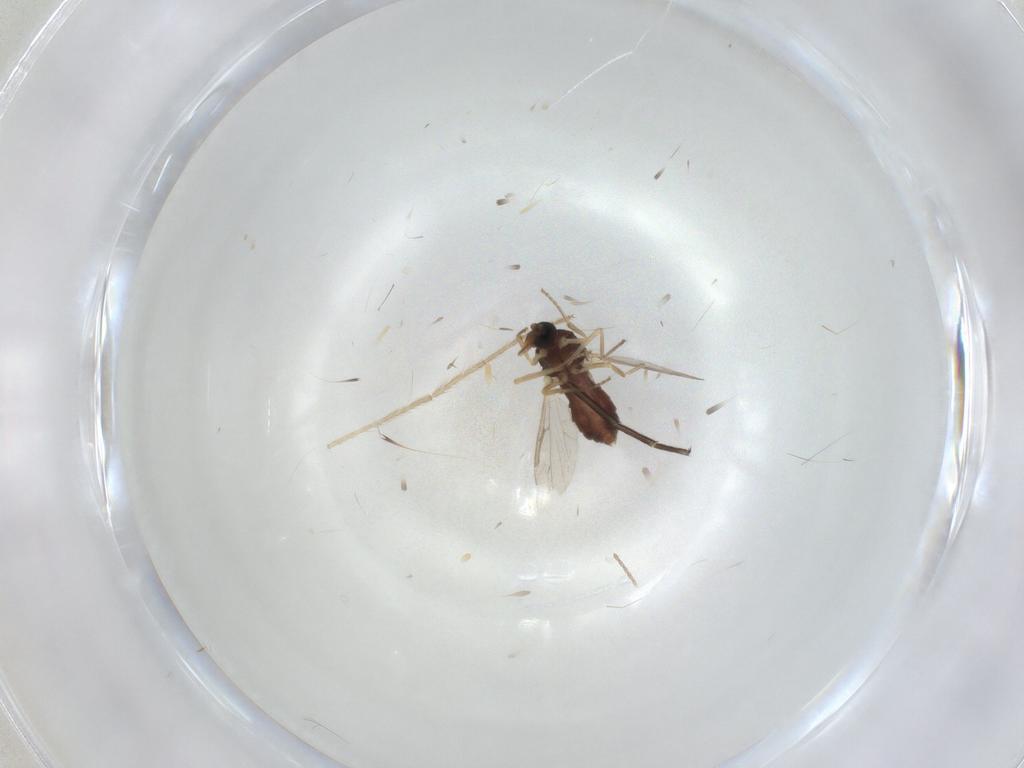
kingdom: Animalia
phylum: Arthropoda
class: Insecta
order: Diptera
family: Ceratopogonidae
